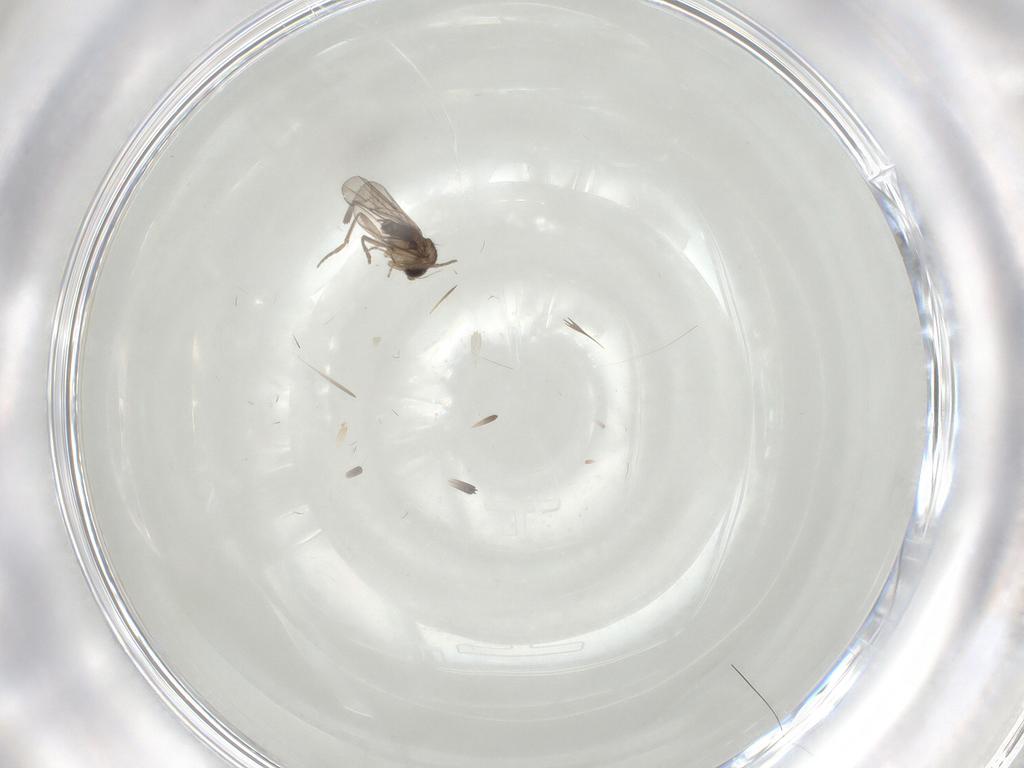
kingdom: Animalia
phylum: Arthropoda
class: Insecta
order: Diptera
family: Phoridae
